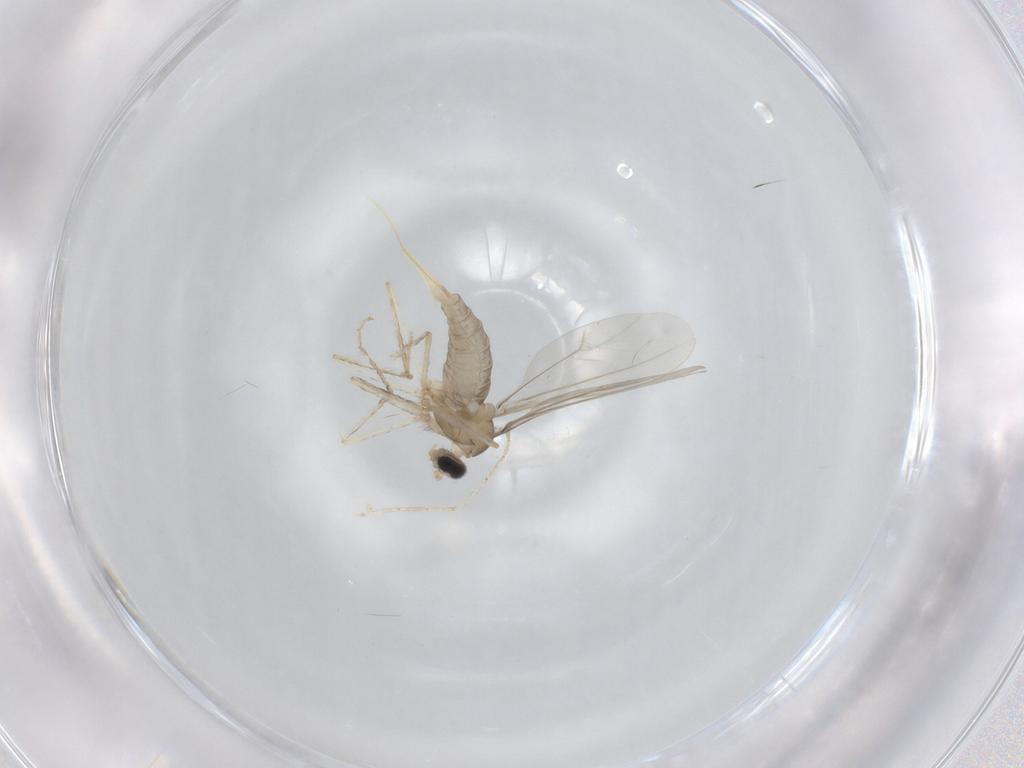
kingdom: Animalia
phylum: Arthropoda
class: Insecta
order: Diptera
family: Cecidomyiidae
